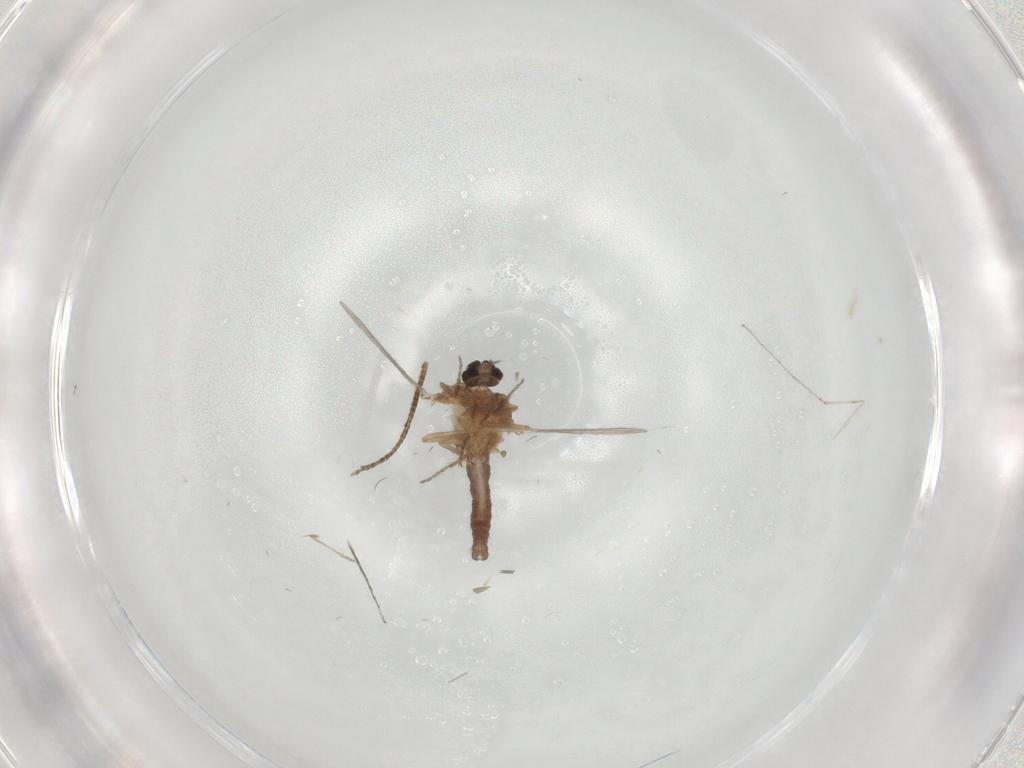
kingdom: Animalia
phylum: Arthropoda
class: Insecta
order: Diptera
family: Ceratopogonidae
